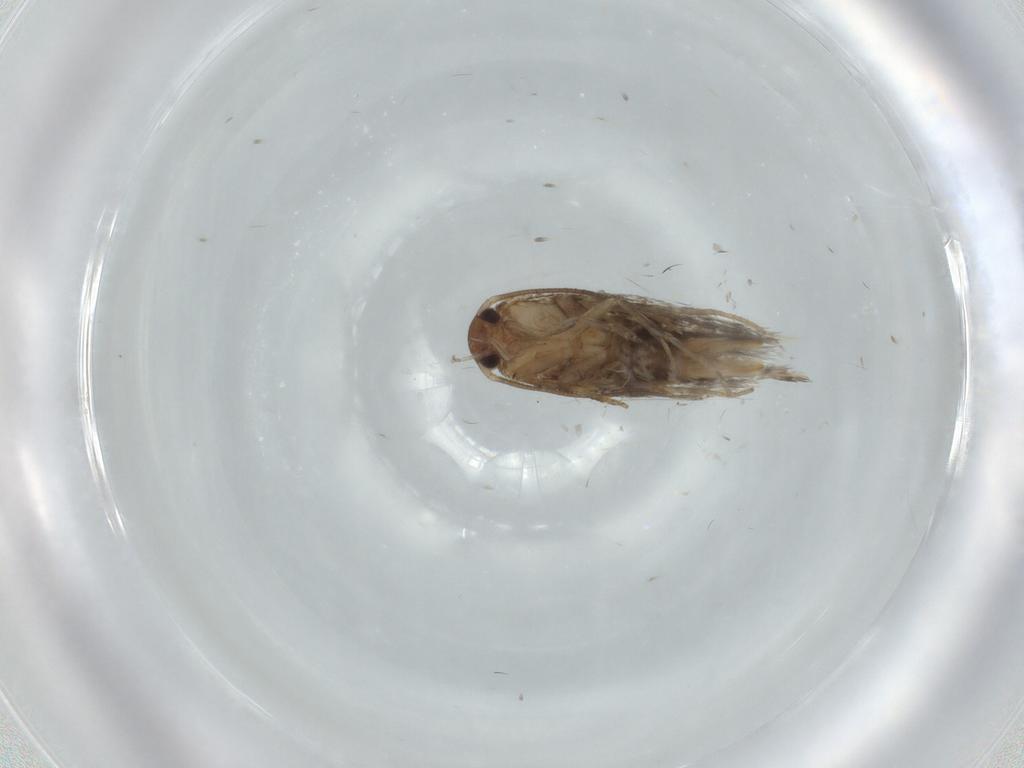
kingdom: Animalia
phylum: Arthropoda
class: Insecta
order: Lepidoptera
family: Elachistidae
